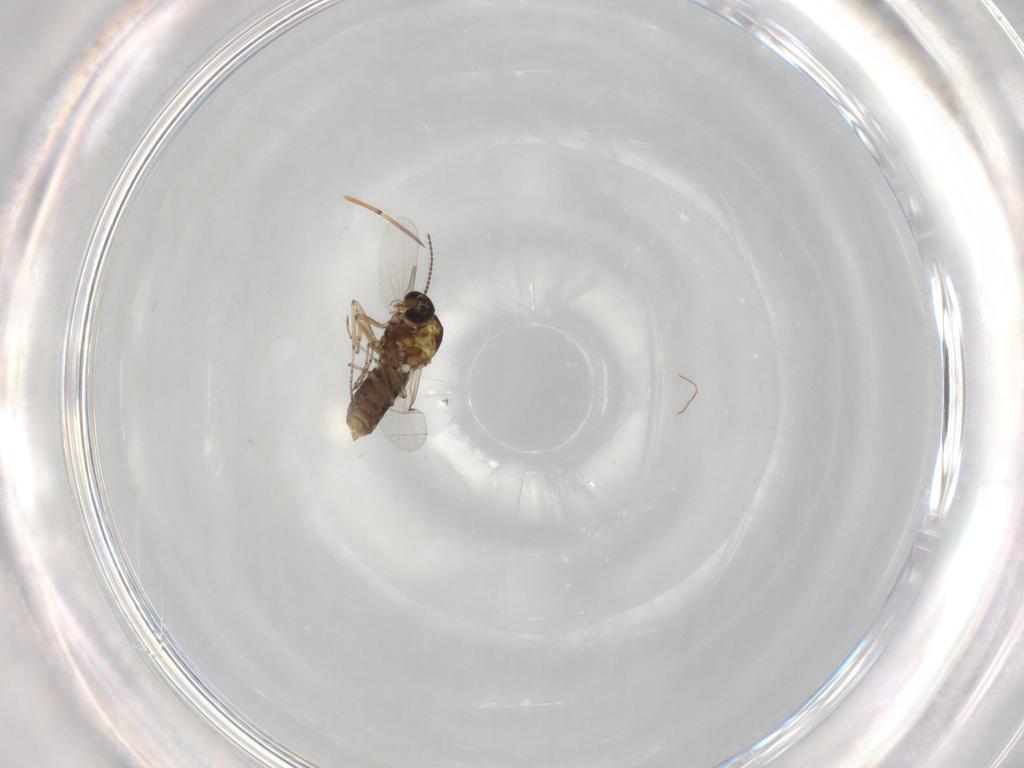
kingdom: Animalia
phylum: Arthropoda
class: Insecta
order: Diptera
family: Ceratopogonidae
